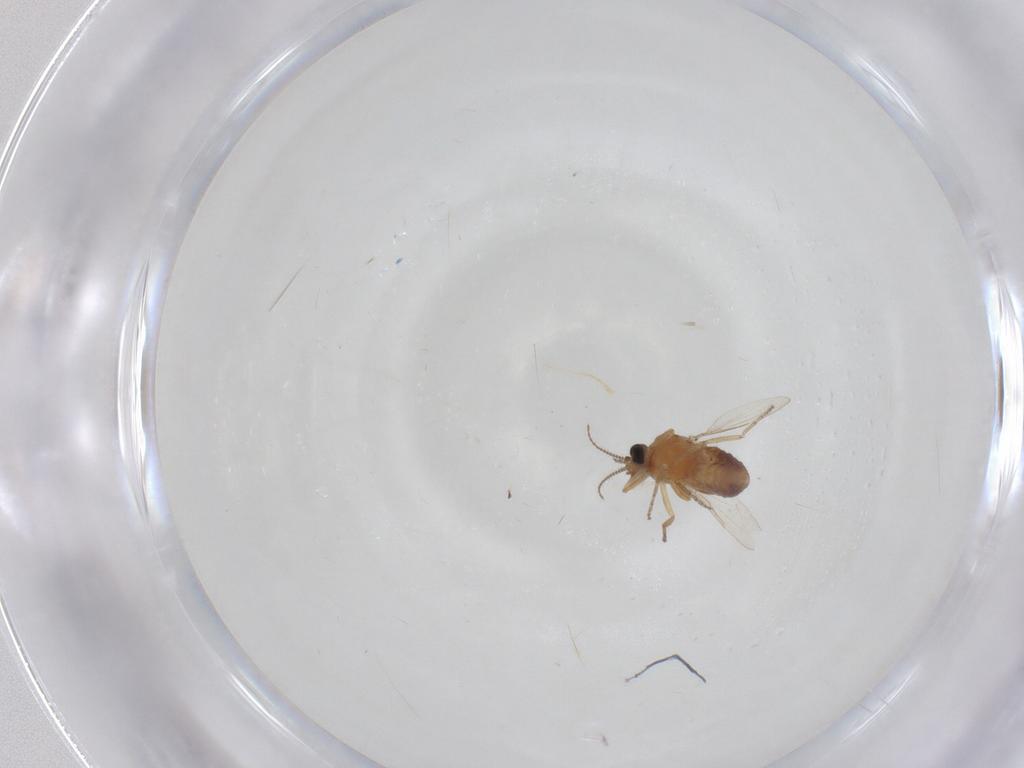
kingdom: Animalia
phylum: Arthropoda
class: Insecta
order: Diptera
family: Ceratopogonidae
